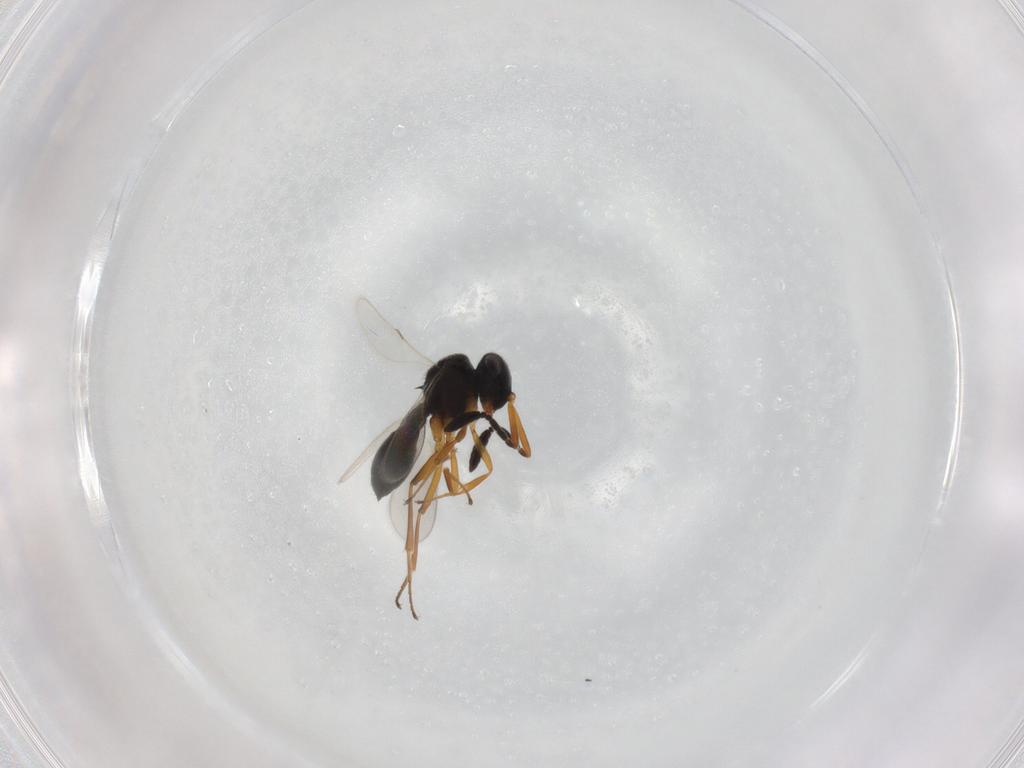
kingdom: Animalia
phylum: Arthropoda
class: Insecta
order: Hymenoptera
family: Scelionidae
